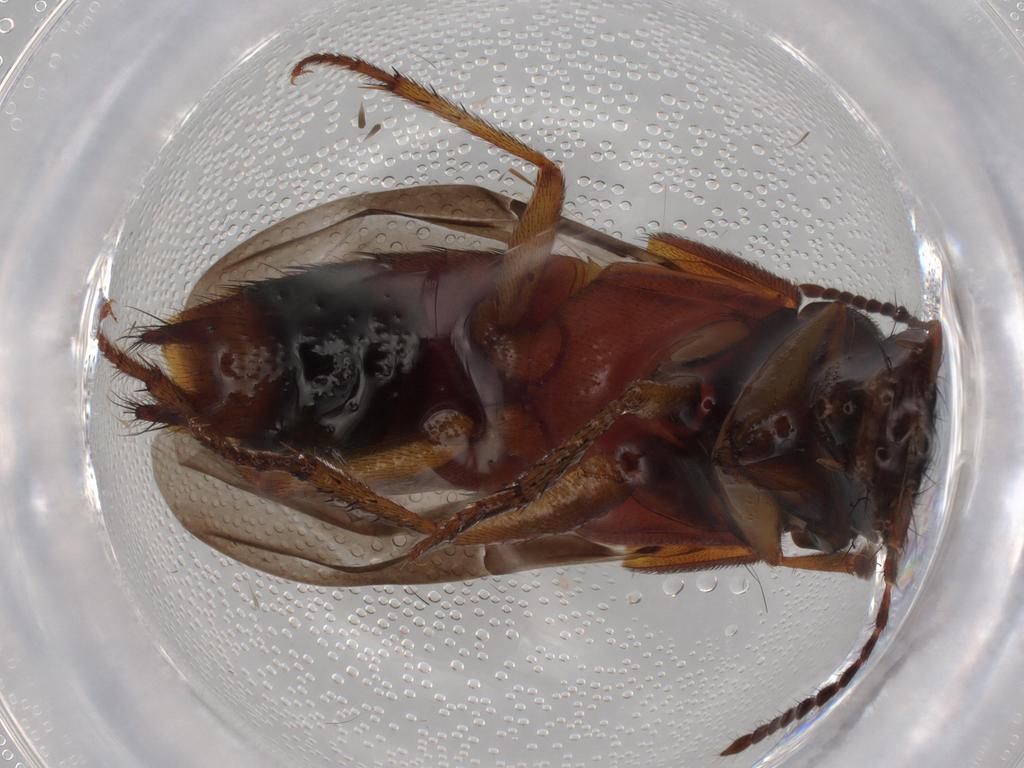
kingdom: Animalia
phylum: Arthropoda
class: Insecta
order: Coleoptera
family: Staphylinidae
